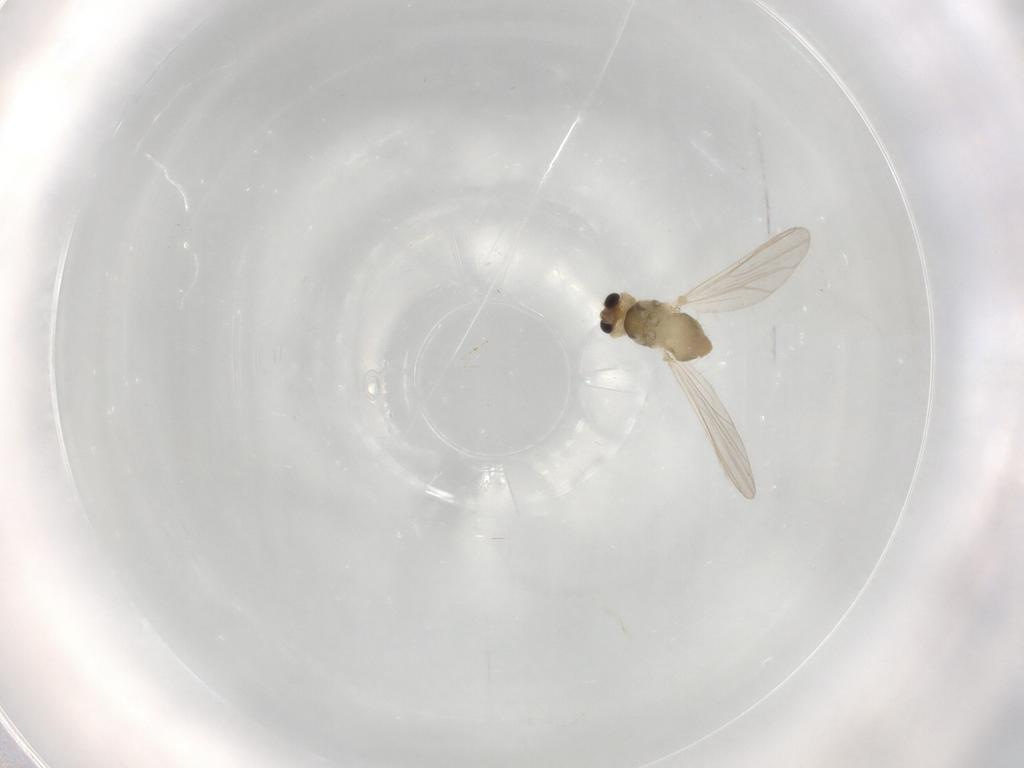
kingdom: Animalia
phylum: Arthropoda
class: Insecta
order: Diptera
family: Chironomidae
